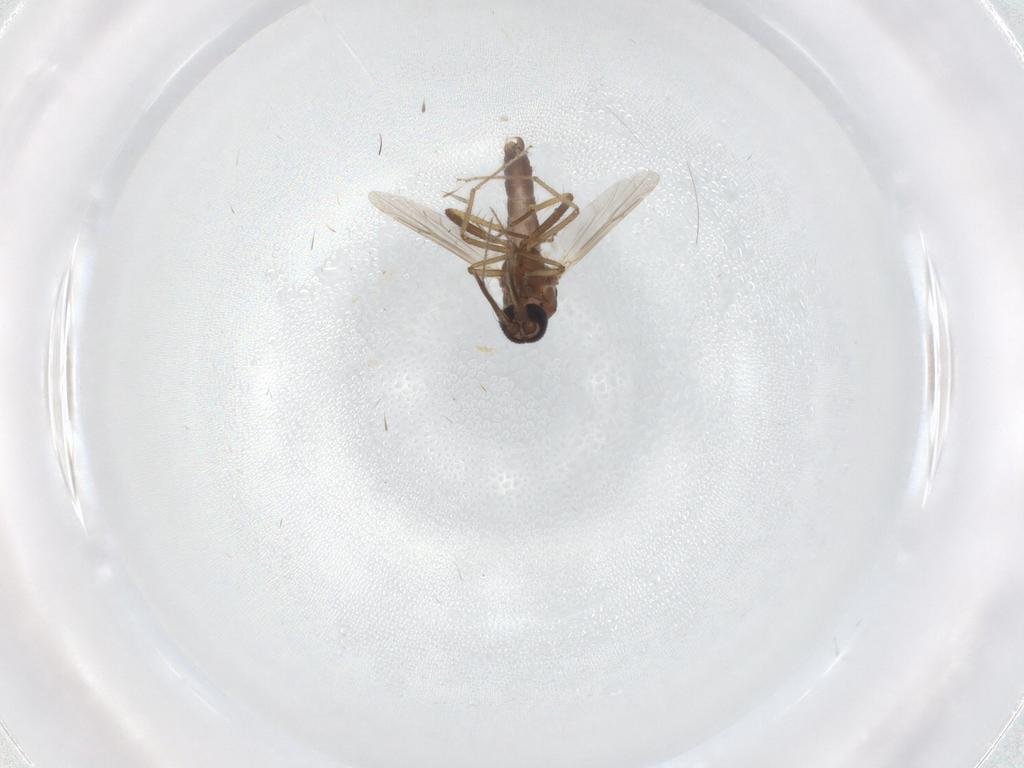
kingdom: Animalia
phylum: Arthropoda
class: Insecta
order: Diptera
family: Ceratopogonidae
